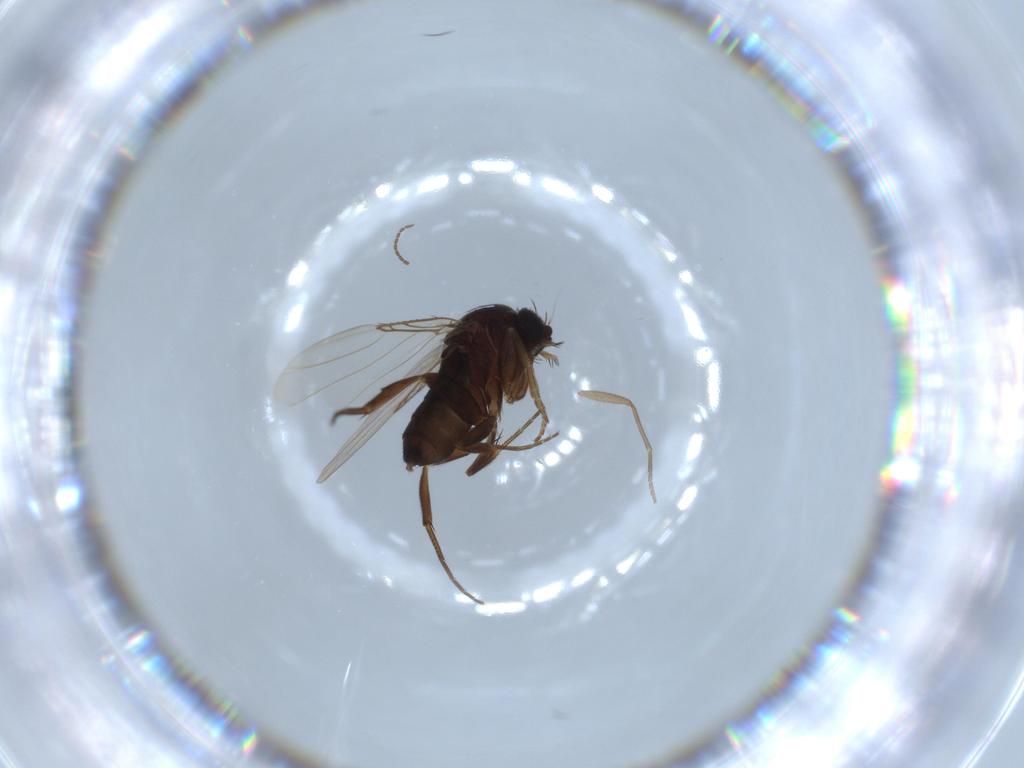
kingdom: Animalia
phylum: Arthropoda
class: Insecta
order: Diptera
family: Phoridae
